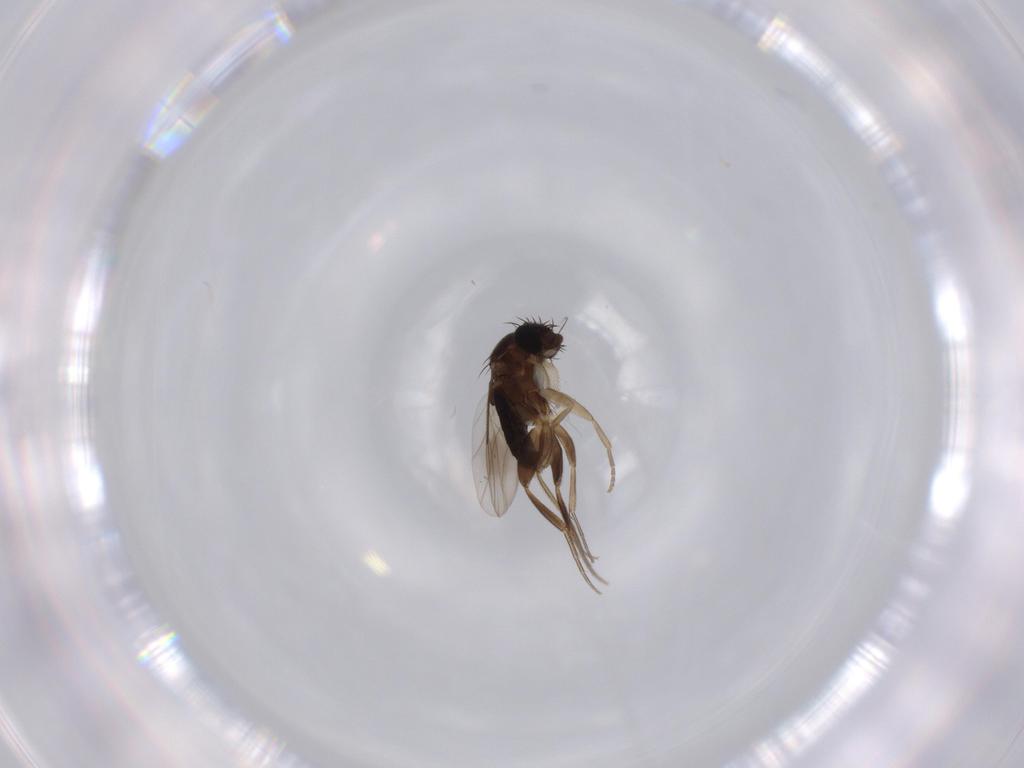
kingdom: Animalia
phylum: Arthropoda
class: Insecta
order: Diptera
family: Phoridae
